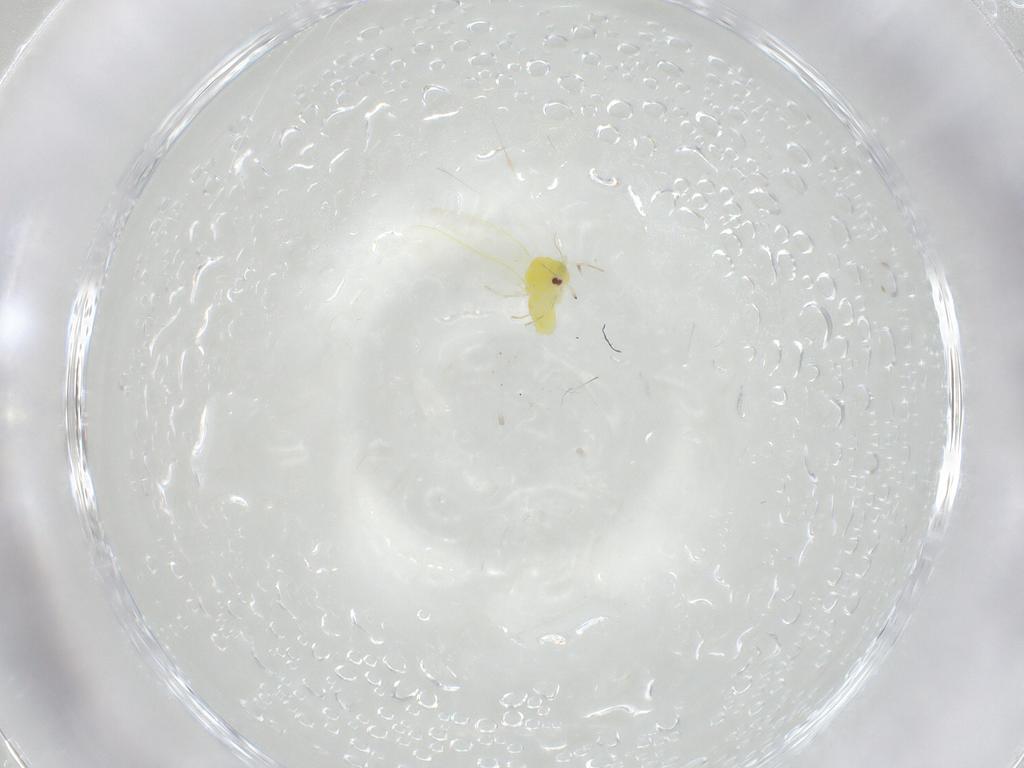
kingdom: Animalia
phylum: Arthropoda
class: Insecta
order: Hemiptera
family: Aleyrodidae
